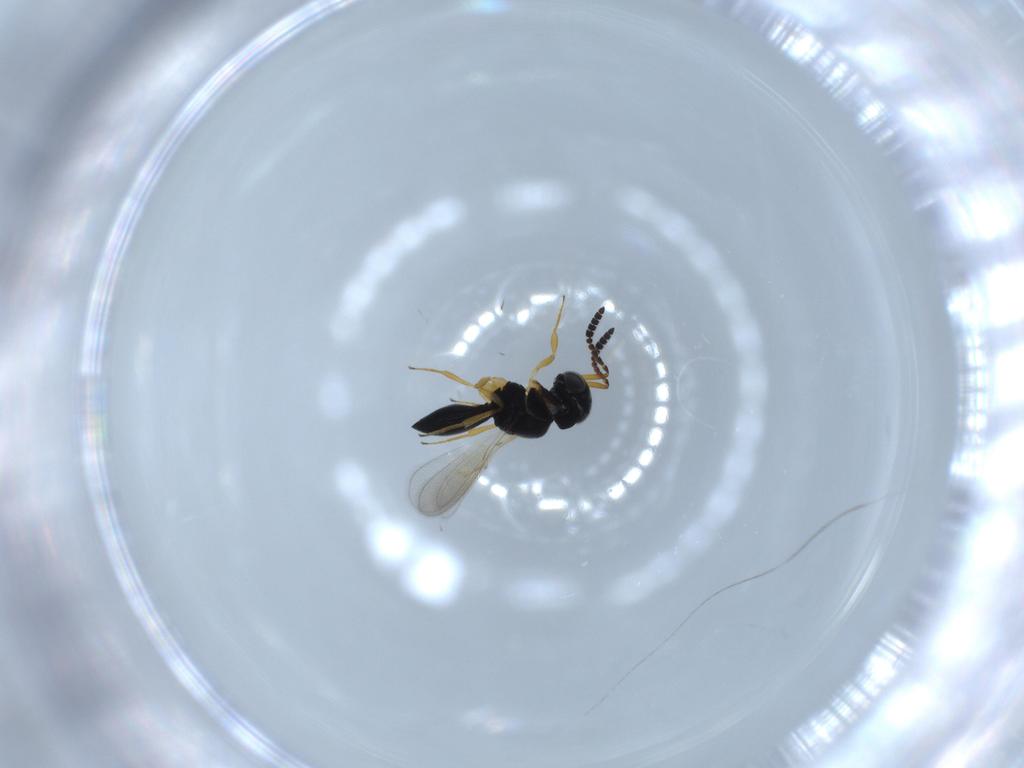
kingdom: Animalia
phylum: Arthropoda
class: Insecta
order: Hymenoptera
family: Scelionidae
